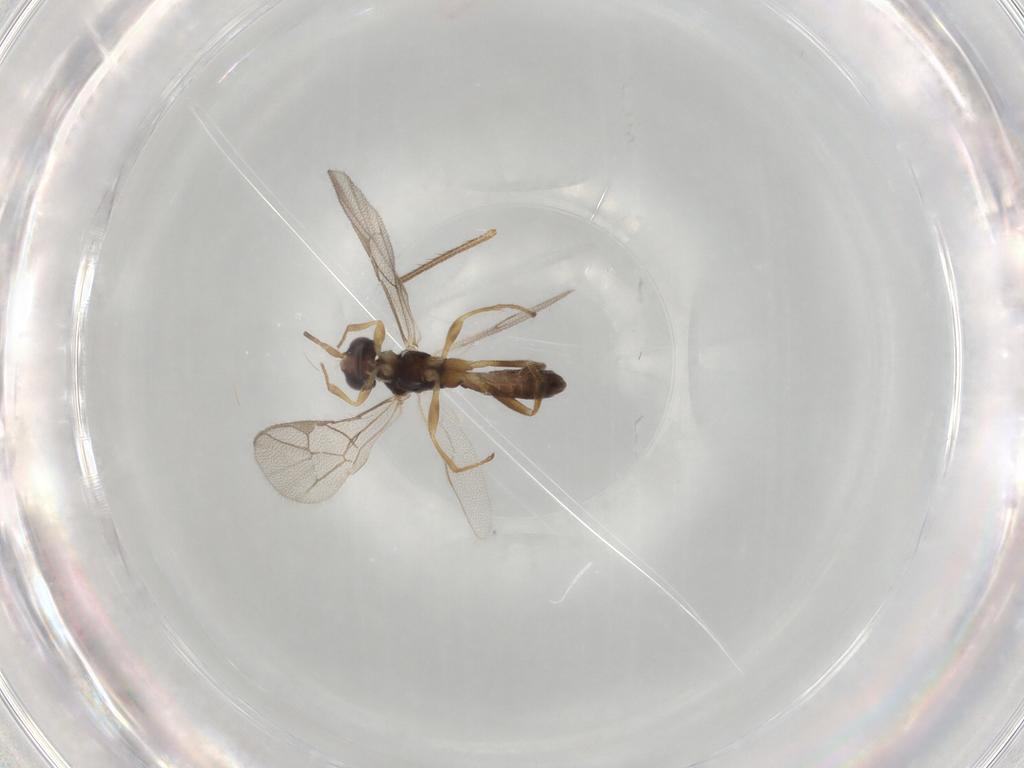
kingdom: Animalia
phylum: Arthropoda
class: Insecta
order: Hymenoptera
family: Ichneumonidae
